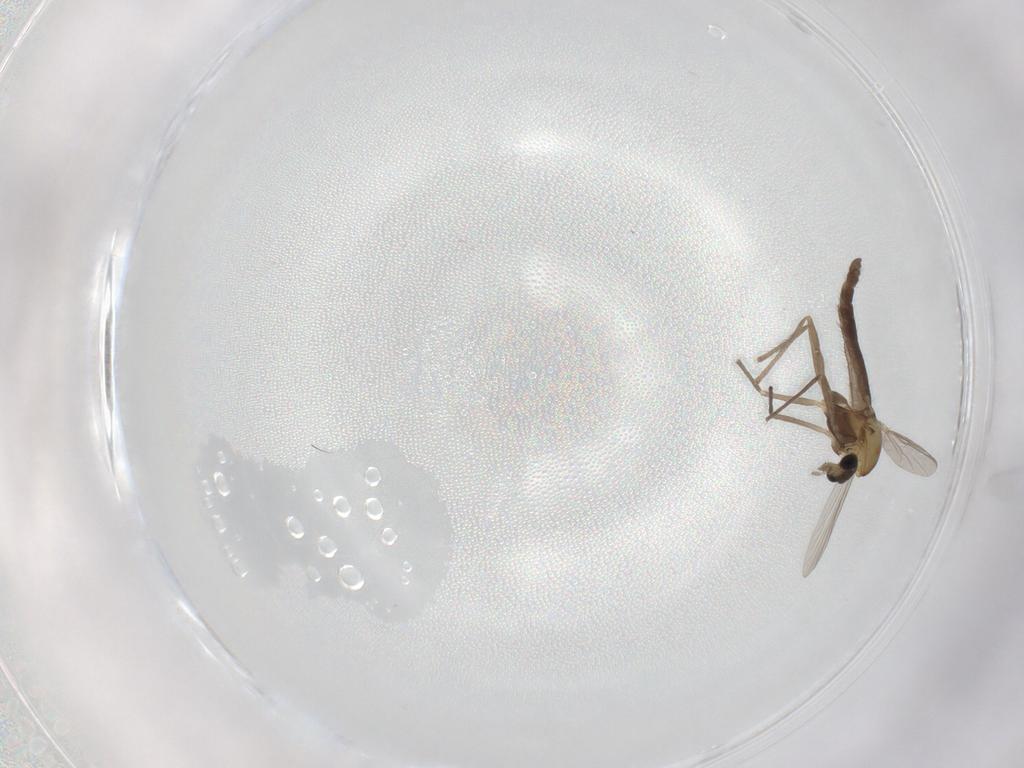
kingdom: Animalia
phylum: Arthropoda
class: Insecta
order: Diptera
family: Chironomidae
